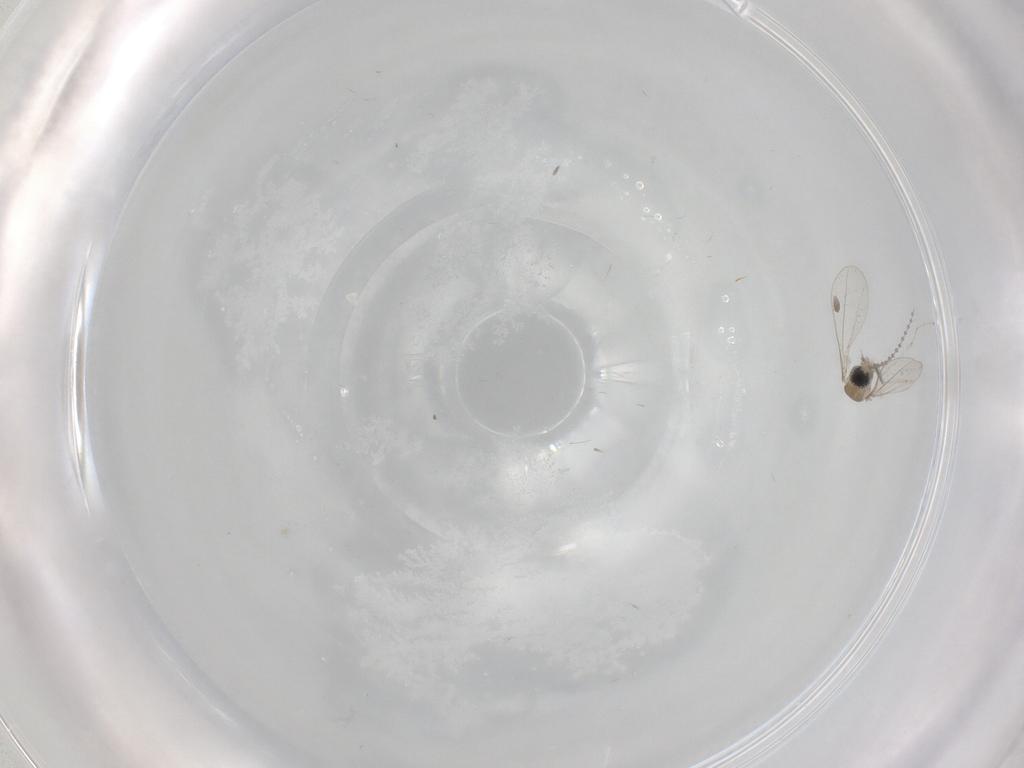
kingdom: Animalia
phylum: Arthropoda
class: Insecta
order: Diptera
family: Cecidomyiidae
